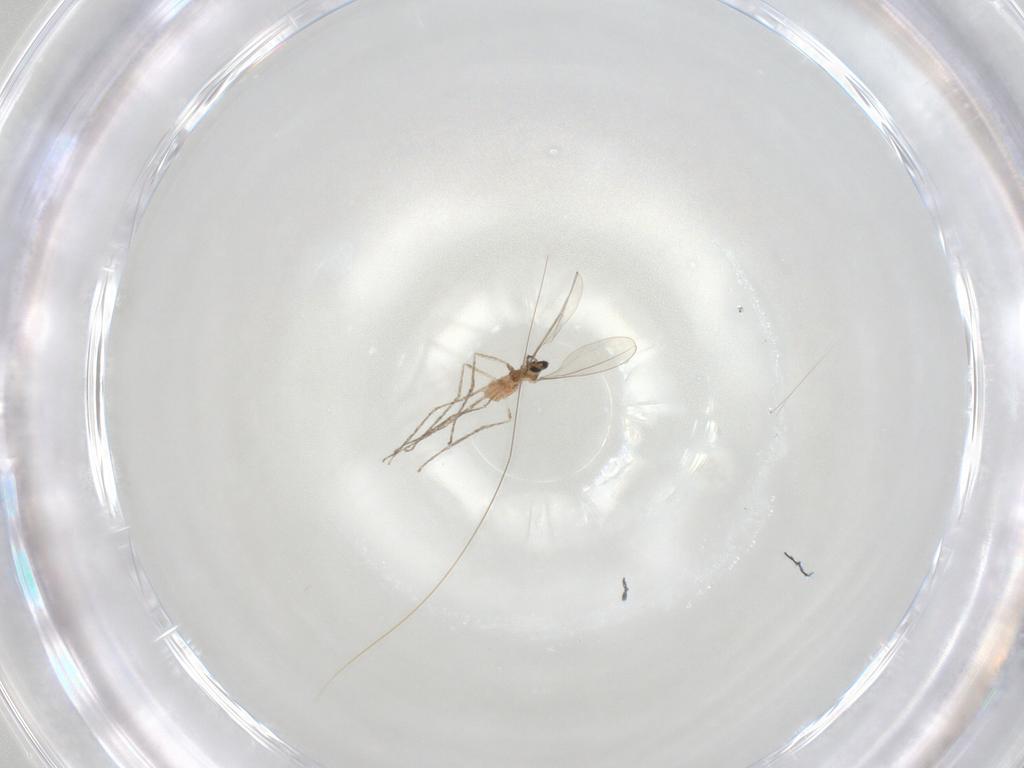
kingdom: Animalia
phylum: Arthropoda
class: Insecta
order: Diptera
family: Cecidomyiidae
